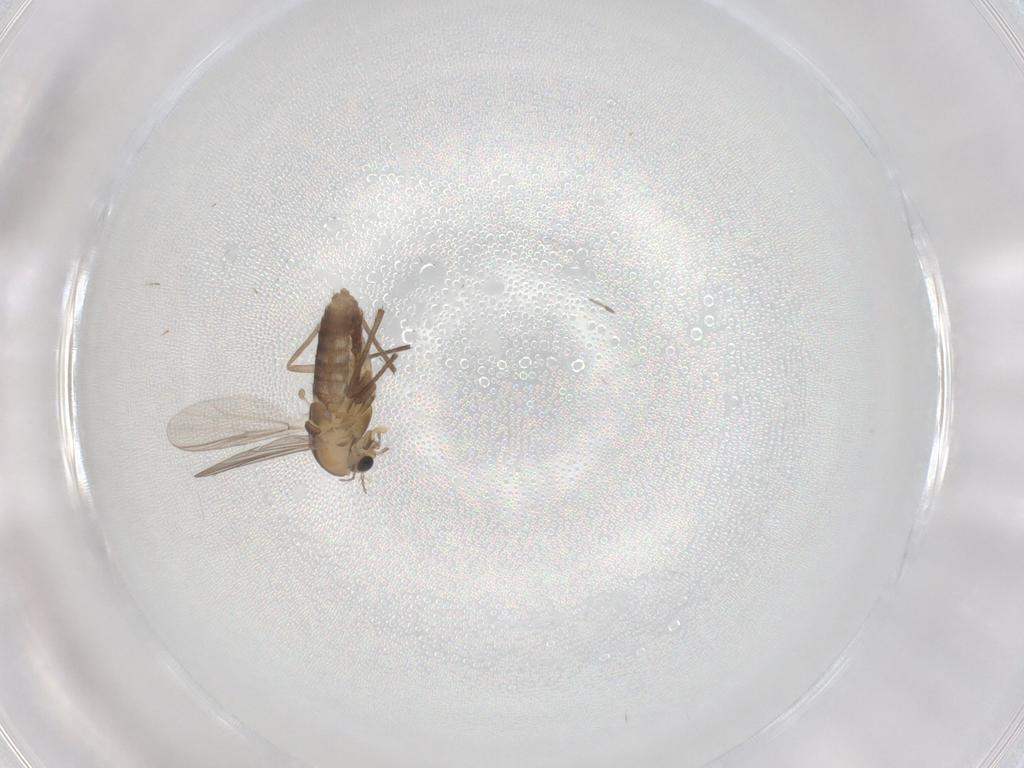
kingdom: Animalia
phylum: Arthropoda
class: Insecta
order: Diptera
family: Chironomidae
